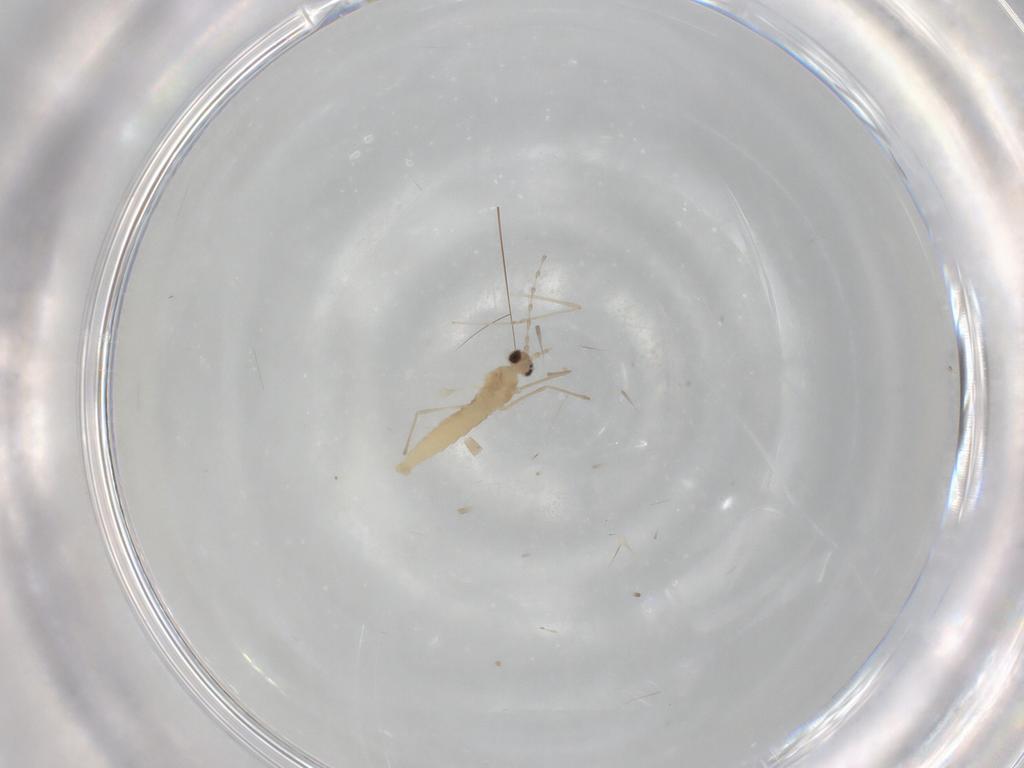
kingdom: Animalia
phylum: Arthropoda
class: Insecta
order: Diptera
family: Cecidomyiidae
